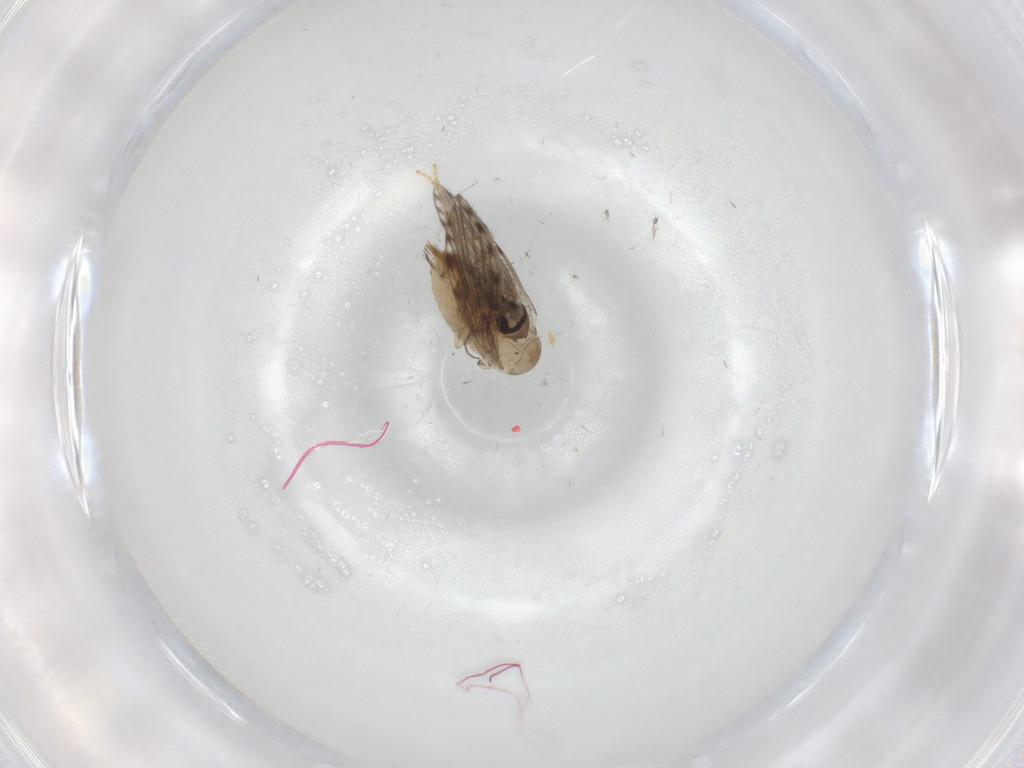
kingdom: Animalia
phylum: Arthropoda
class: Insecta
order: Diptera
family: Psychodidae
